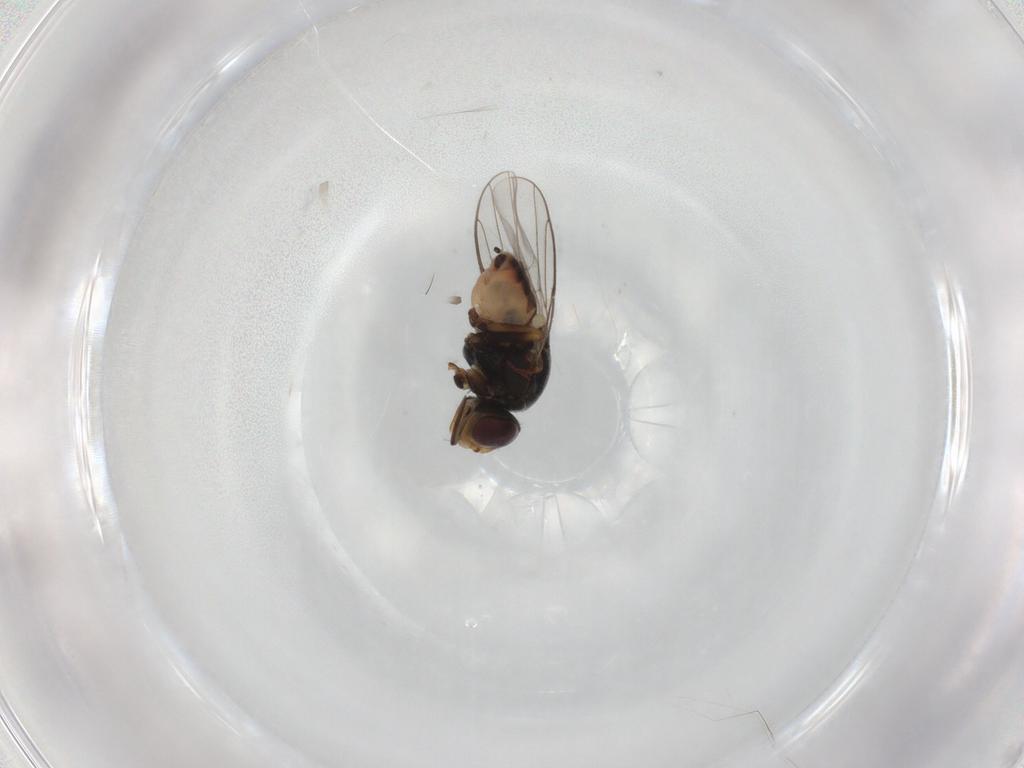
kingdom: Animalia
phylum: Arthropoda
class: Insecta
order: Diptera
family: Chloropidae
